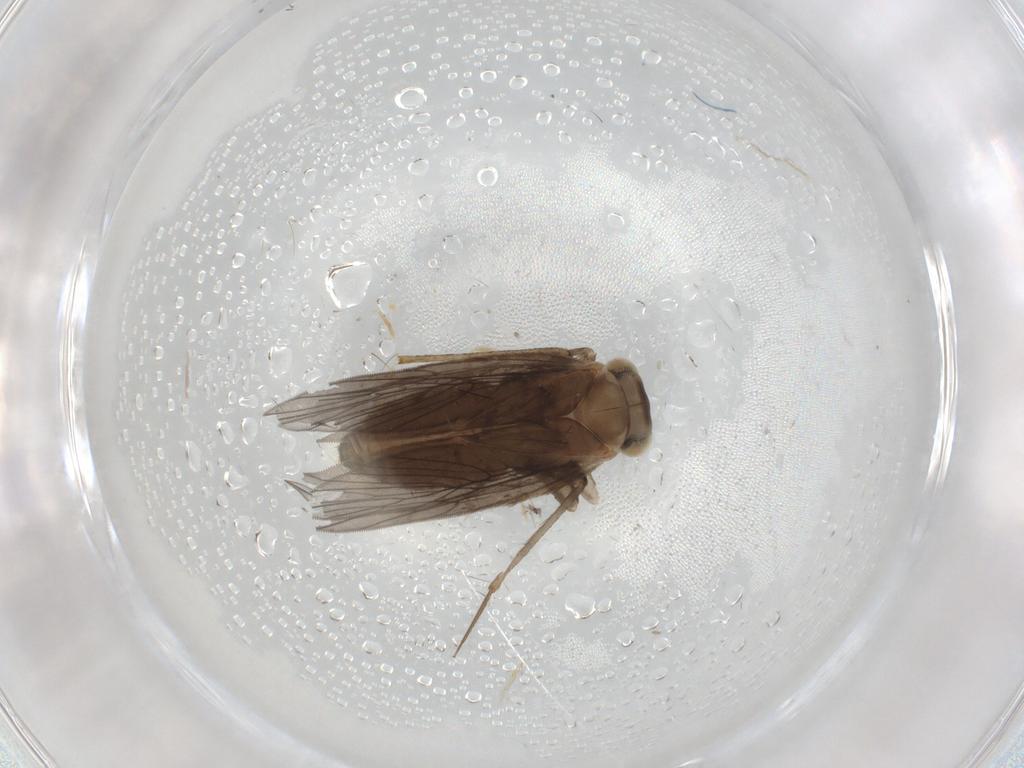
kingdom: Animalia
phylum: Arthropoda
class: Insecta
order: Psocodea
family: Lepidopsocidae
